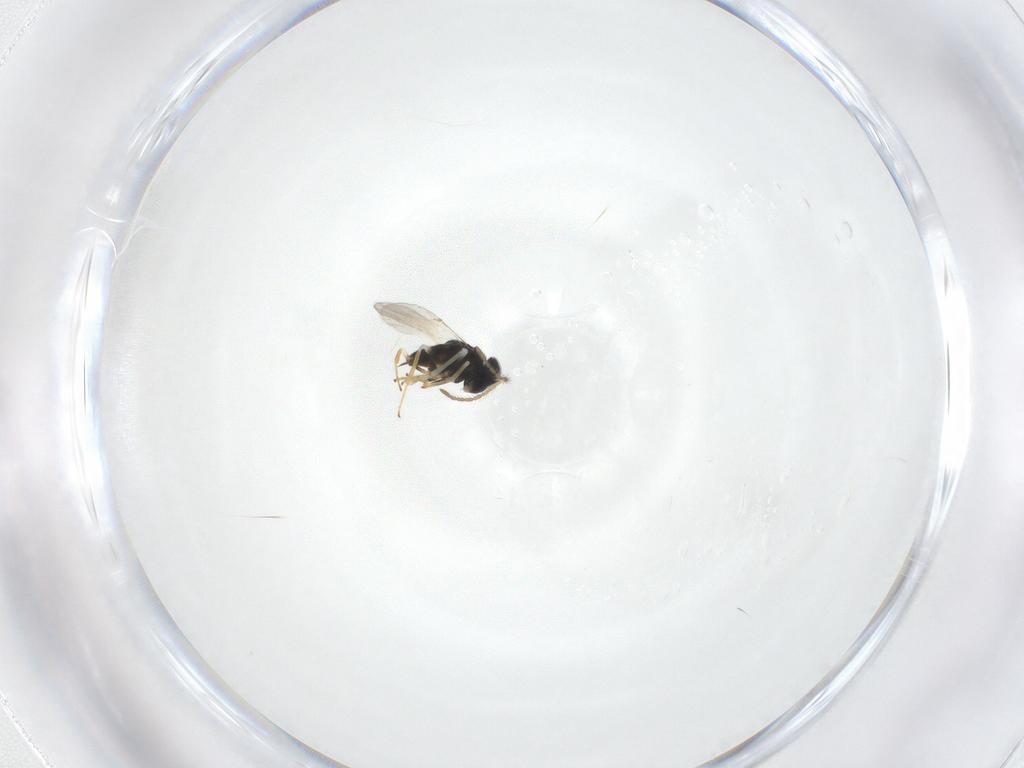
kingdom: Animalia
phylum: Arthropoda
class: Insecta
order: Hymenoptera
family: Encyrtidae
